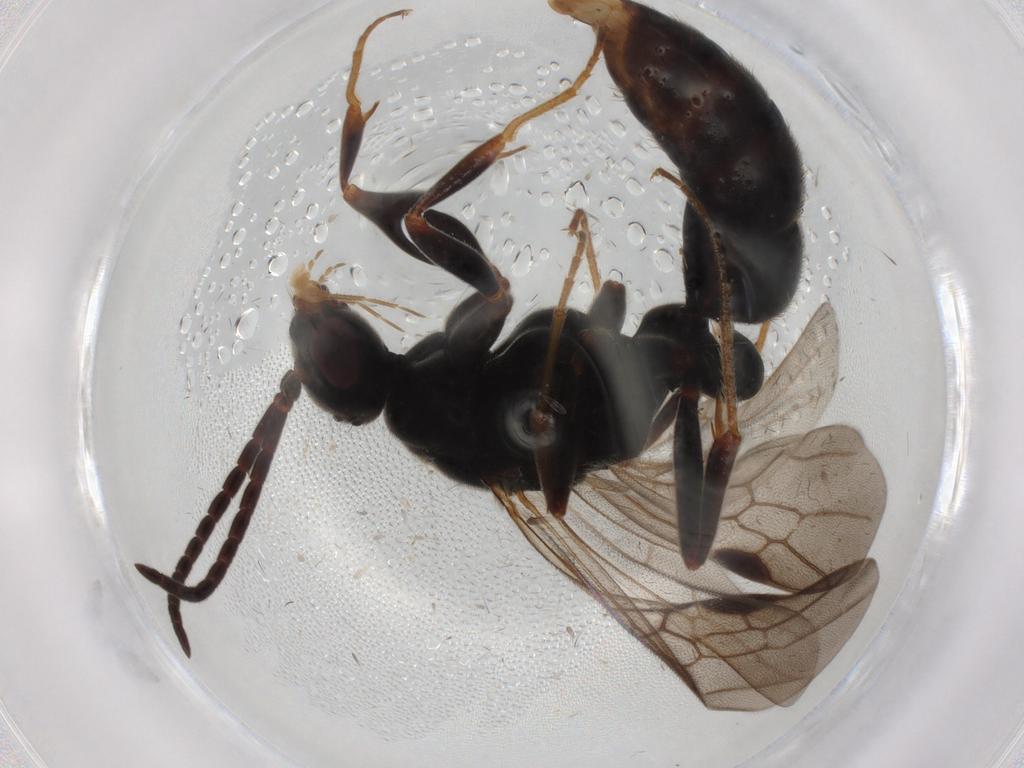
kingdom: Animalia
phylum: Arthropoda
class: Insecta
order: Hymenoptera
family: Formicidae
